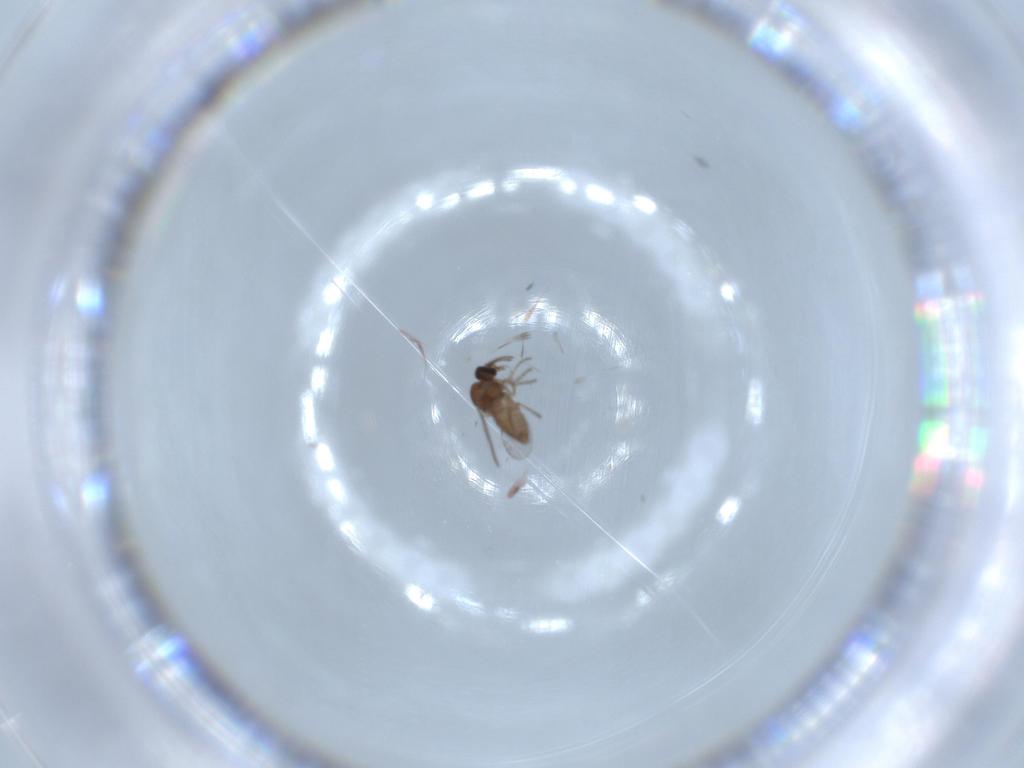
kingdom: Animalia
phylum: Arthropoda
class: Insecta
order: Diptera
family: Ceratopogonidae
